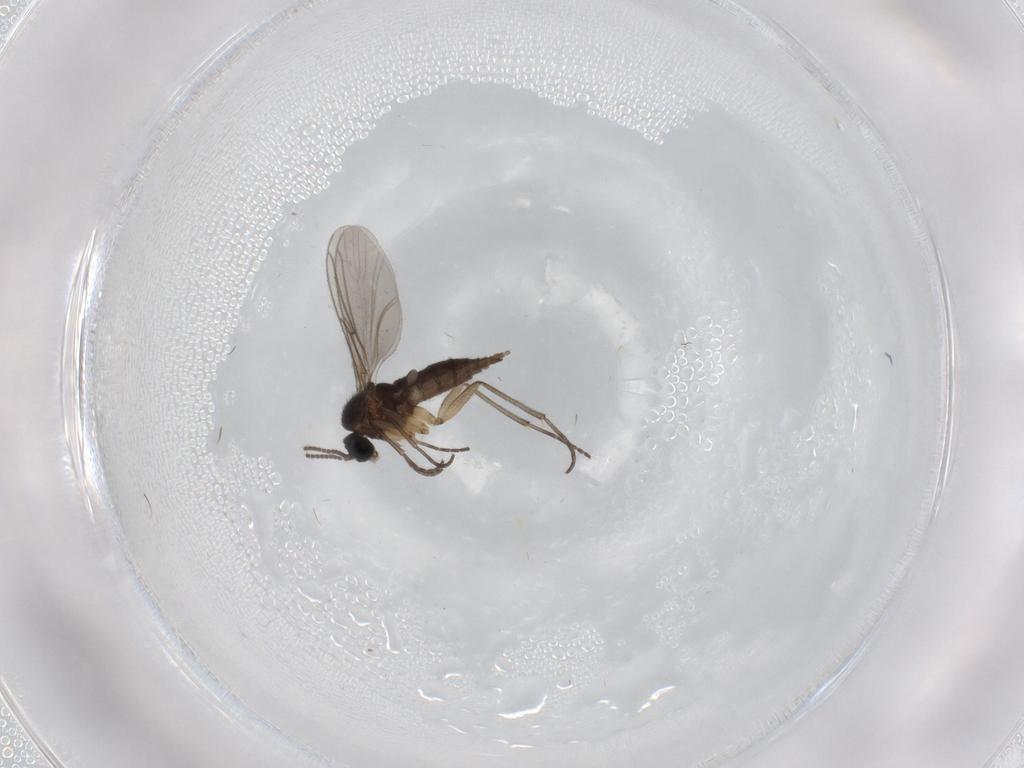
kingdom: Animalia
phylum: Arthropoda
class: Insecta
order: Diptera
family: Sciaridae
